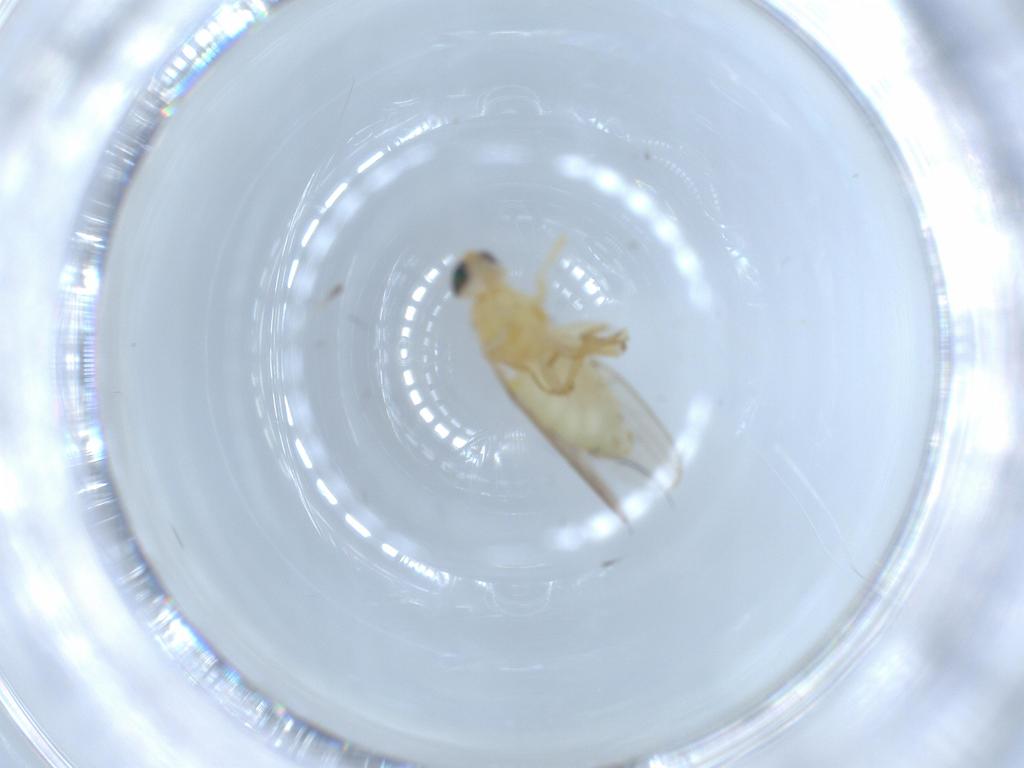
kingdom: Animalia
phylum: Arthropoda
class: Insecta
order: Diptera
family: Chyromyidae
